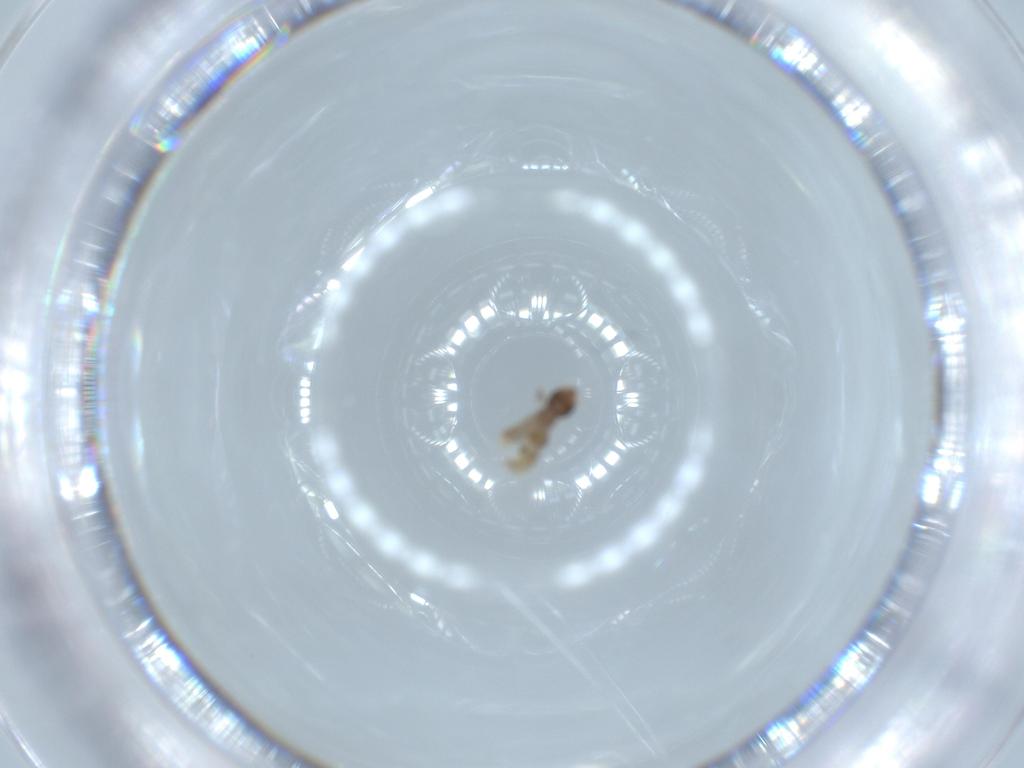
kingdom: Animalia
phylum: Arthropoda
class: Insecta
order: Psocodea
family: Liposcelididae
